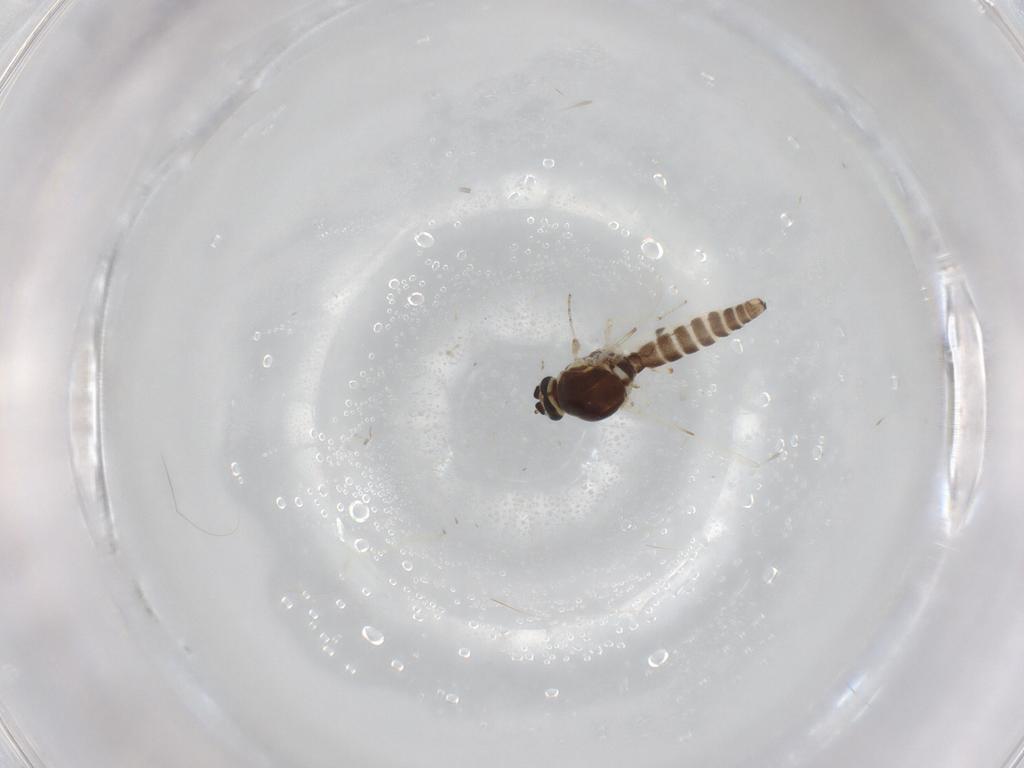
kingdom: Animalia
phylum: Arthropoda
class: Insecta
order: Diptera
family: Ceratopogonidae
